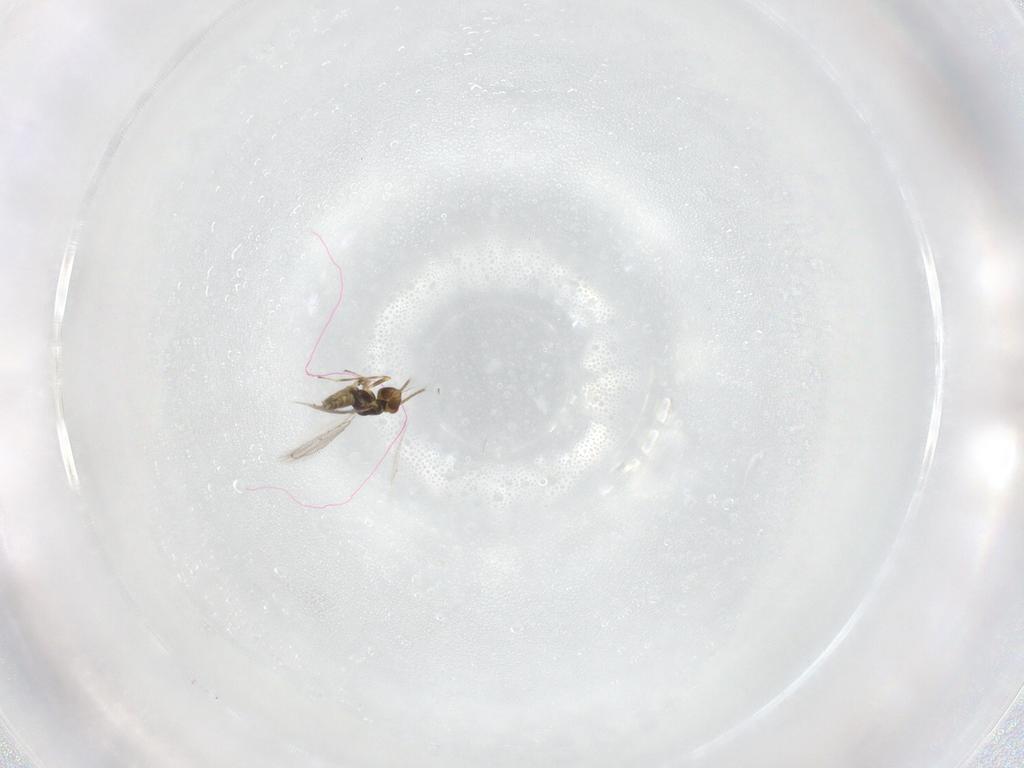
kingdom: Animalia
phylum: Arthropoda
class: Insecta
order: Hymenoptera
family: Eulophidae
